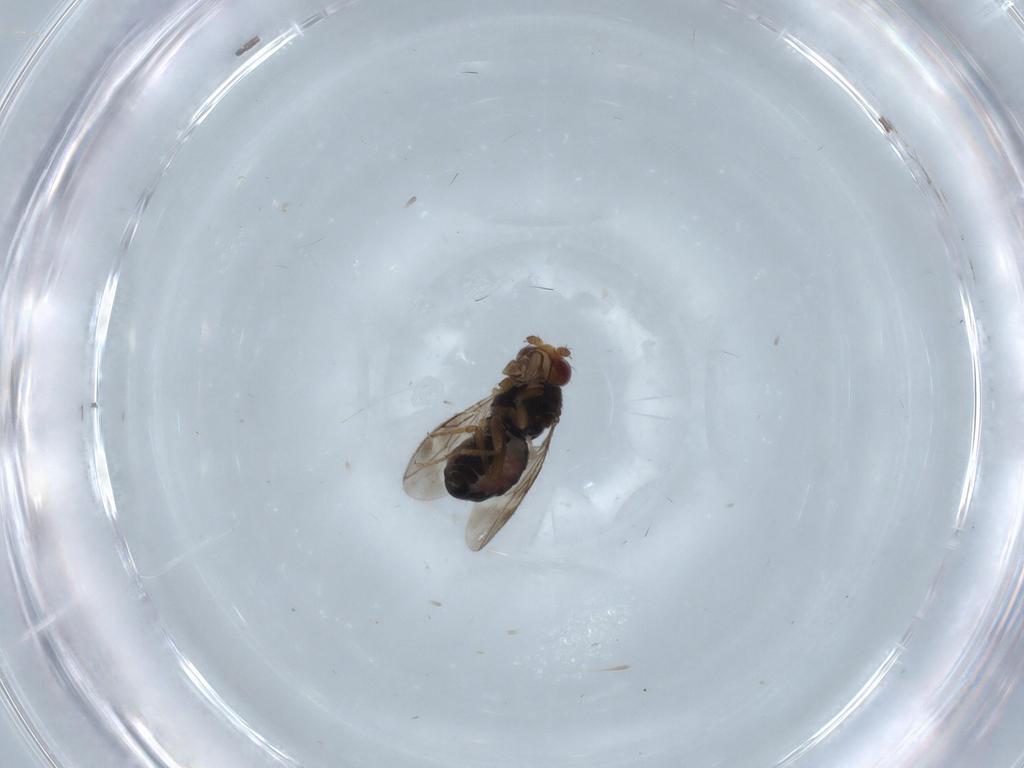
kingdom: Animalia
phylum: Arthropoda
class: Insecta
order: Diptera
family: Sphaeroceridae
